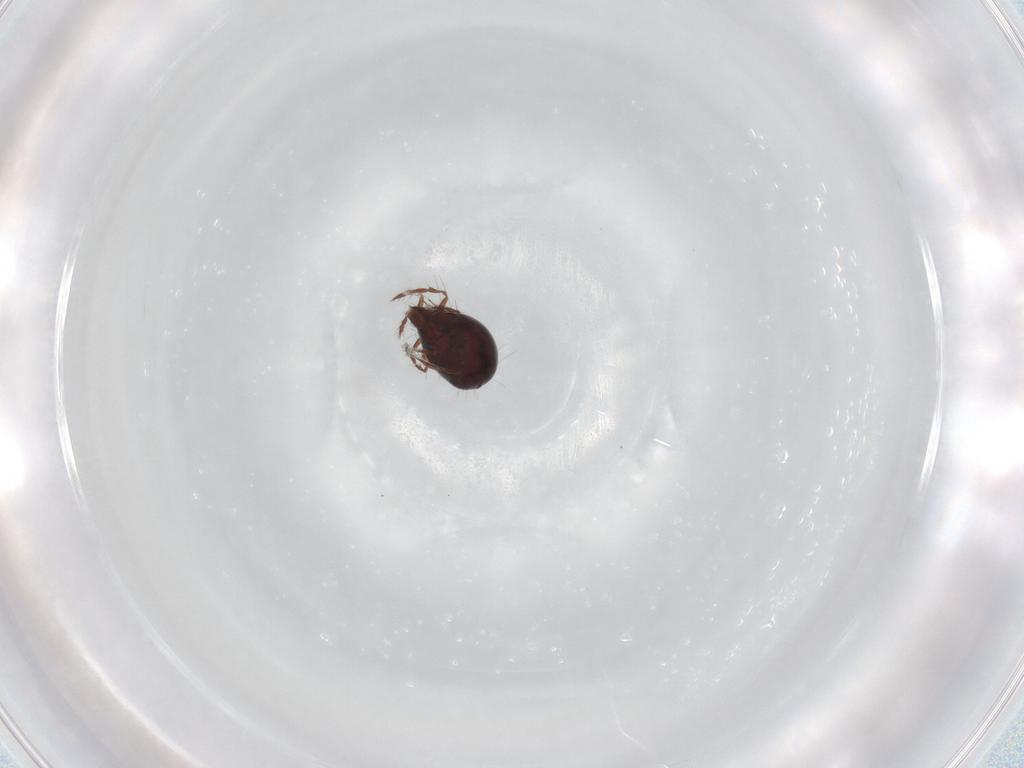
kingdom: Animalia
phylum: Arthropoda
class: Arachnida
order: Sarcoptiformes
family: Ceratoppiidae
